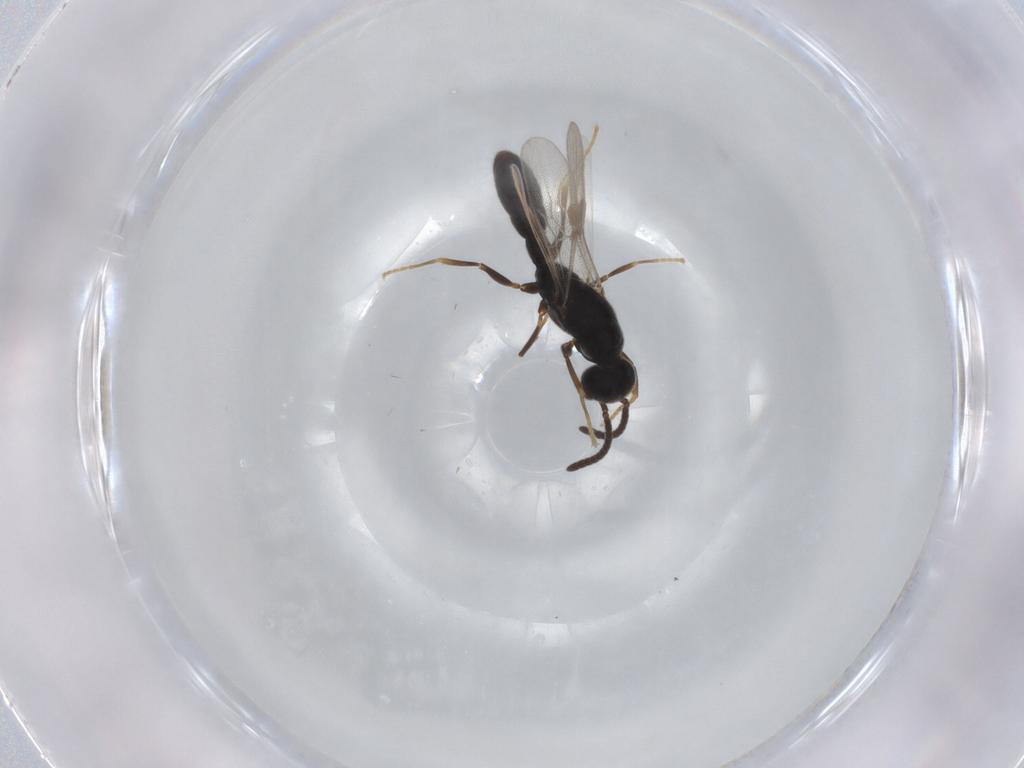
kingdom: Animalia
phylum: Arthropoda
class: Insecta
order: Hymenoptera
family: Formicidae
